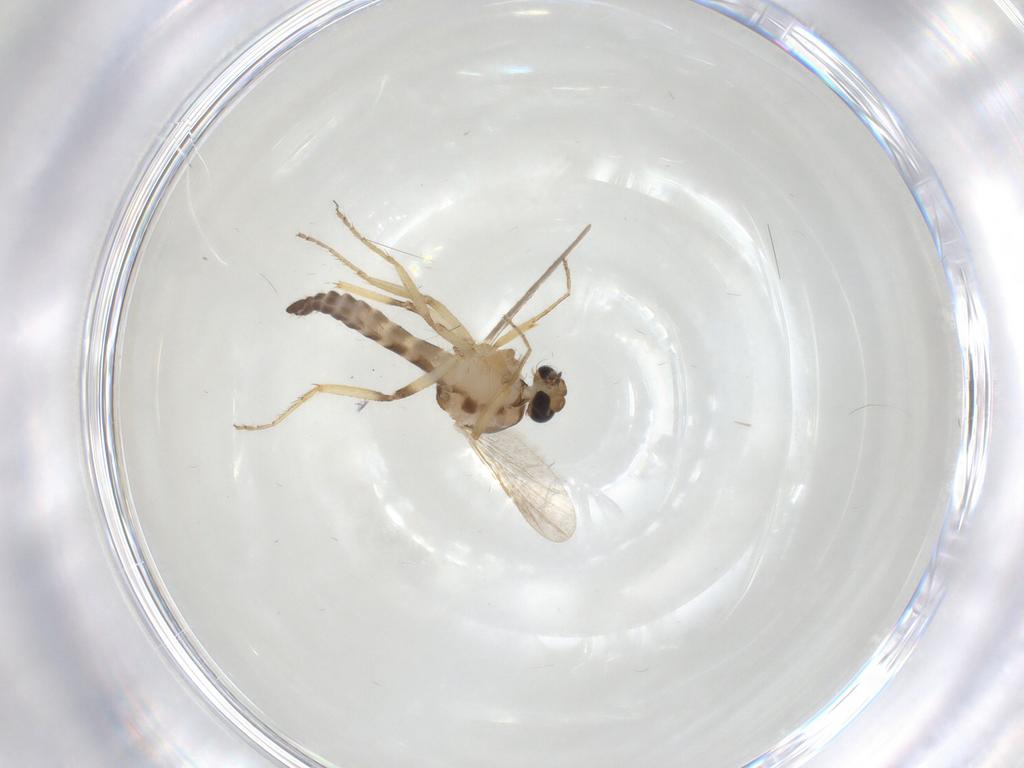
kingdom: Animalia
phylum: Arthropoda
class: Insecta
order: Diptera
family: Ceratopogonidae
